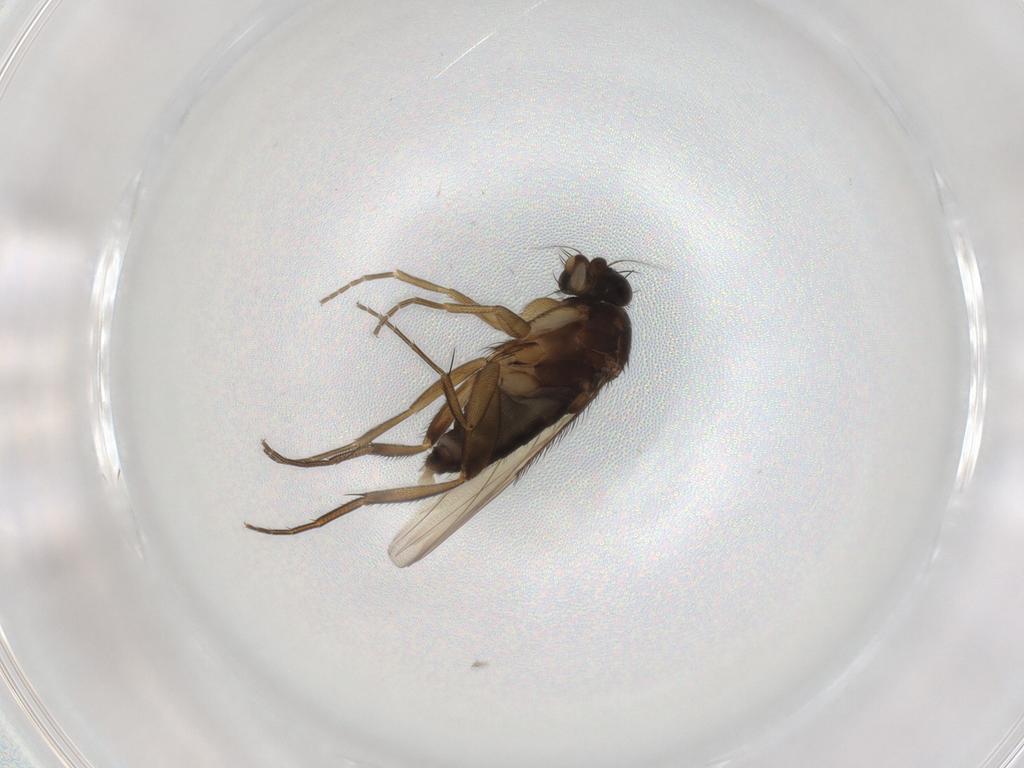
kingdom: Animalia
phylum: Arthropoda
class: Insecta
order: Diptera
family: Phoridae
